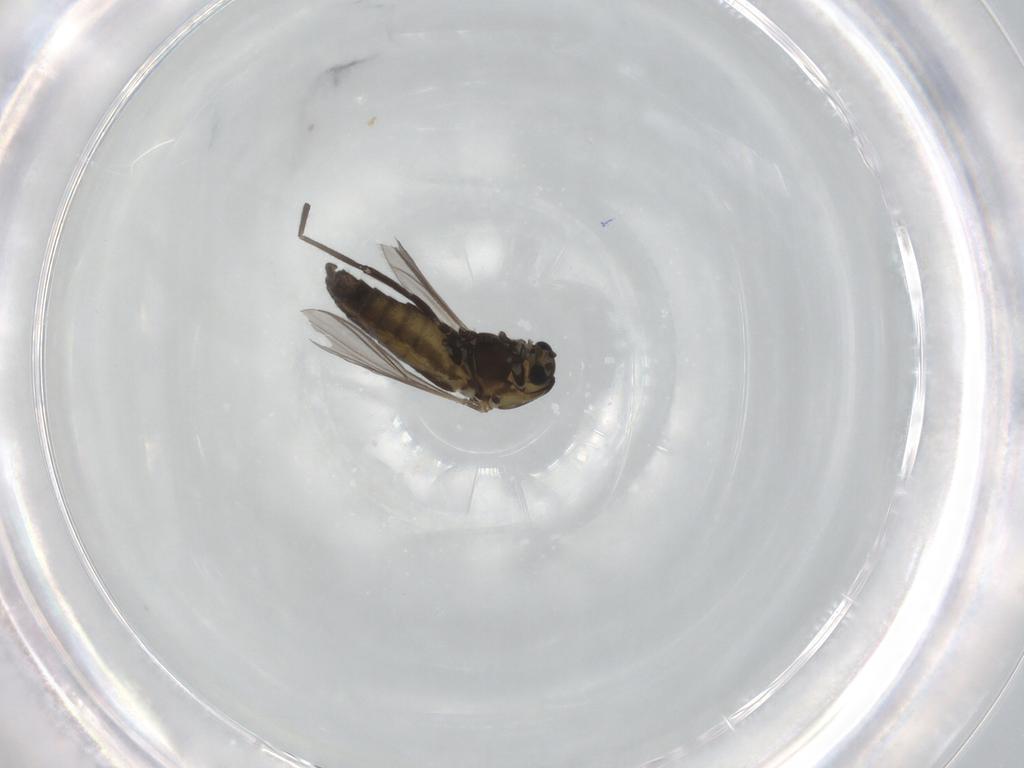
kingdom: Animalia
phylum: Arthropoda
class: Insecta
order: Diptera
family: Chironomidae
